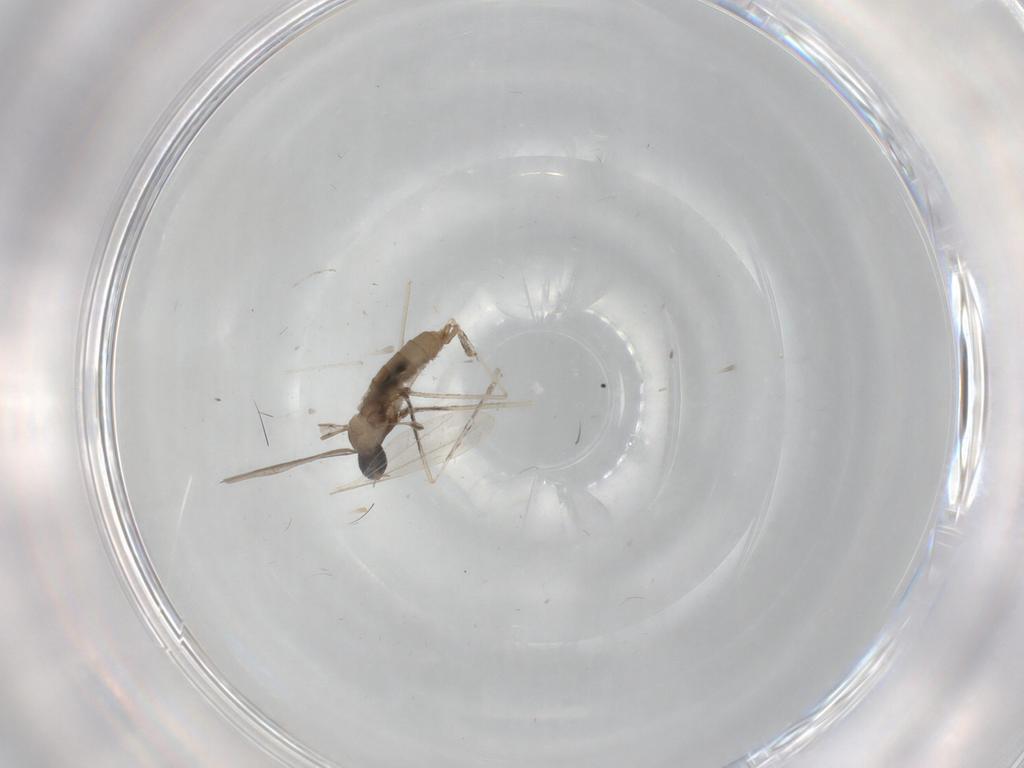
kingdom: Animalia
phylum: Arthropoda
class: Insecta
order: Diptera
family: Cecidomyiidae
